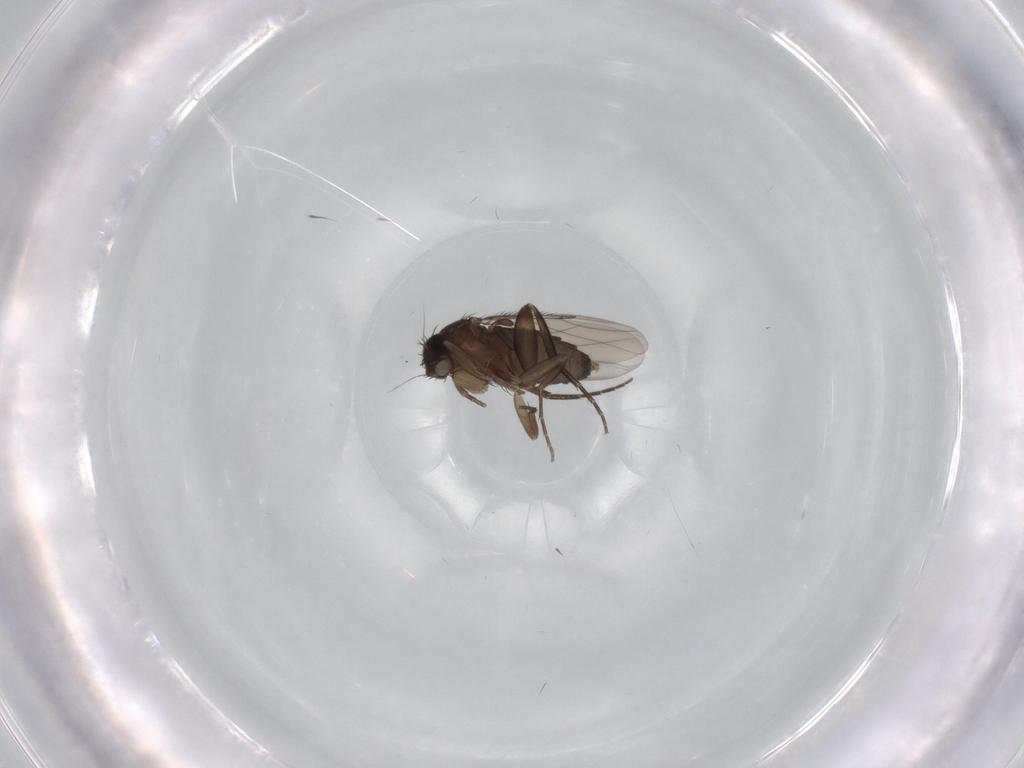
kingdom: Animalia
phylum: Arthropoda
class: Insecta
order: Diptera
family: Phoridae
